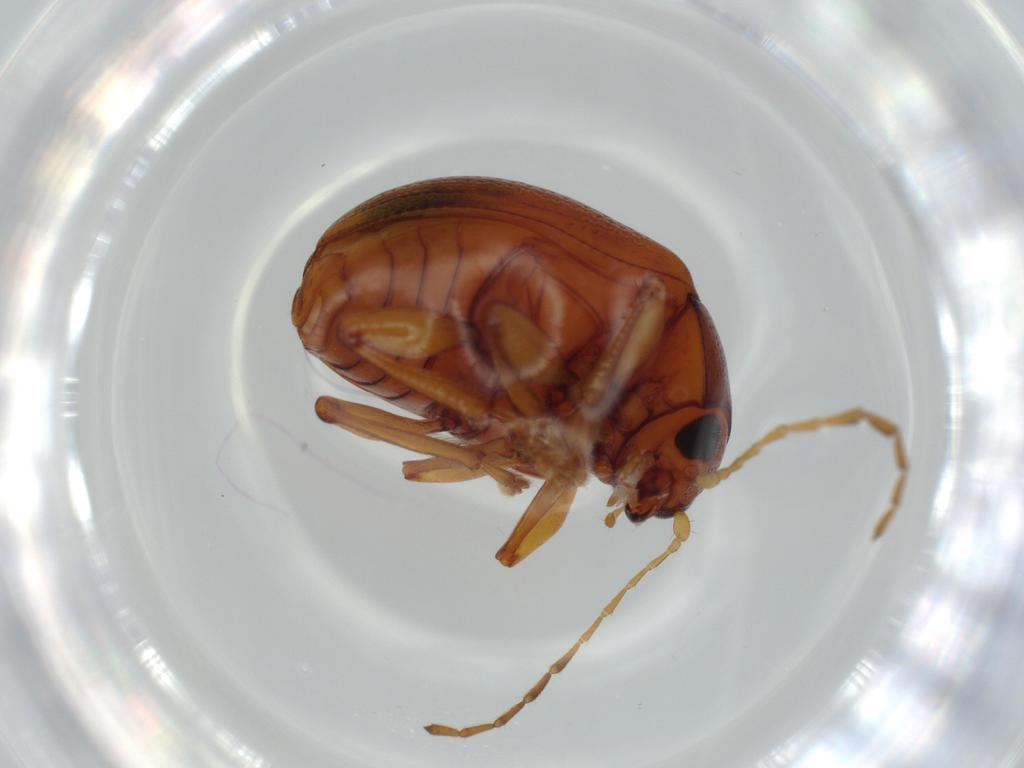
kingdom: Animalia
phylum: Arthropoda
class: Insecta
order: Coleoptera
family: Chrysomelidae
